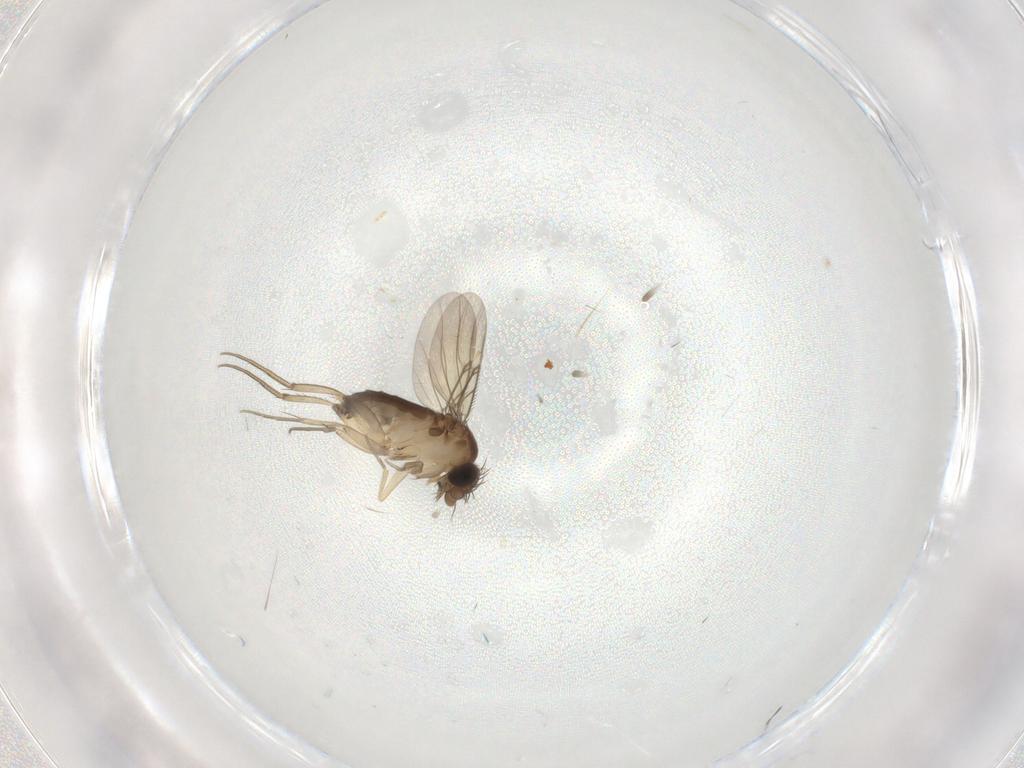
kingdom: Animalia
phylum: Arthropoda
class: Insecta
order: Diptera
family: Phoridae
